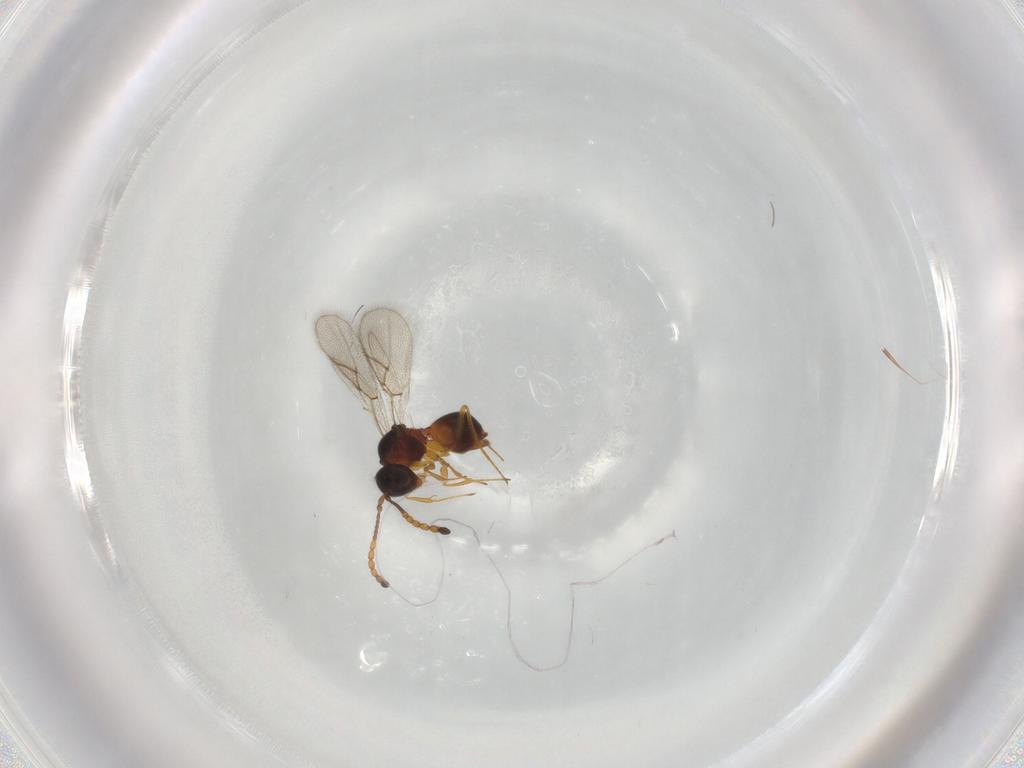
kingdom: Animalia
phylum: Arthropoda
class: Insecta
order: Hymenoptera
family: Figitidae
